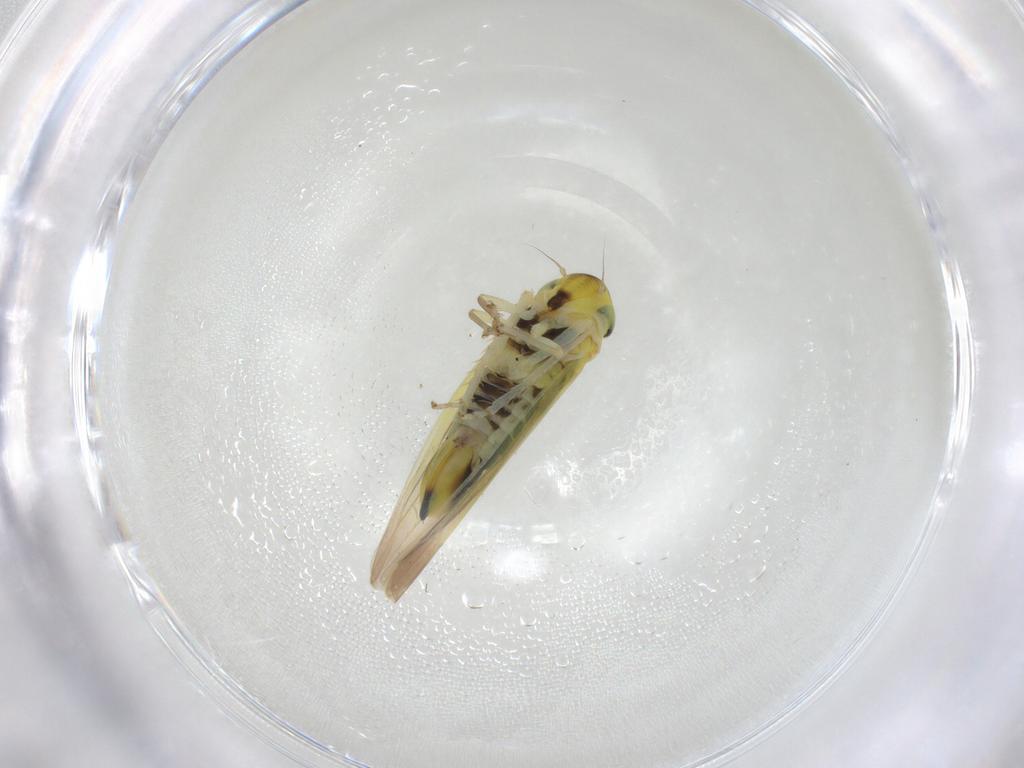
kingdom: Animalia
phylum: Arthropoda
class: Insecta
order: Hemiptera
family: Cicadellidae
